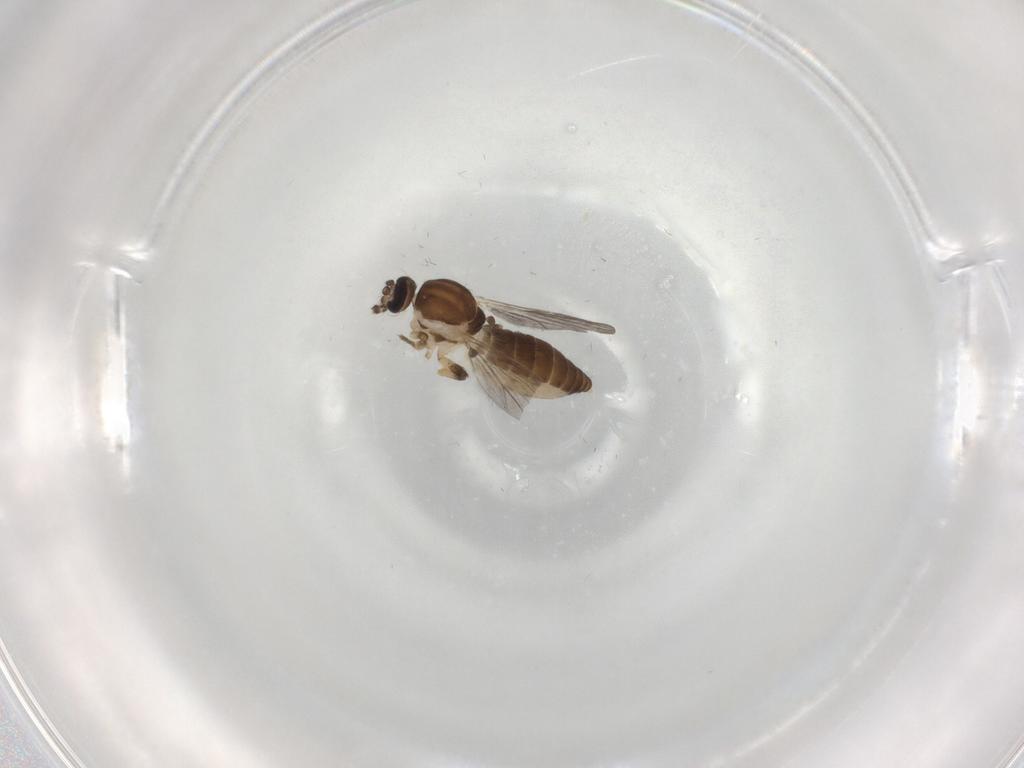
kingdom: Animalia
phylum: Arthropoda
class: Insecta
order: Diptera
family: Ceratopogonidae
